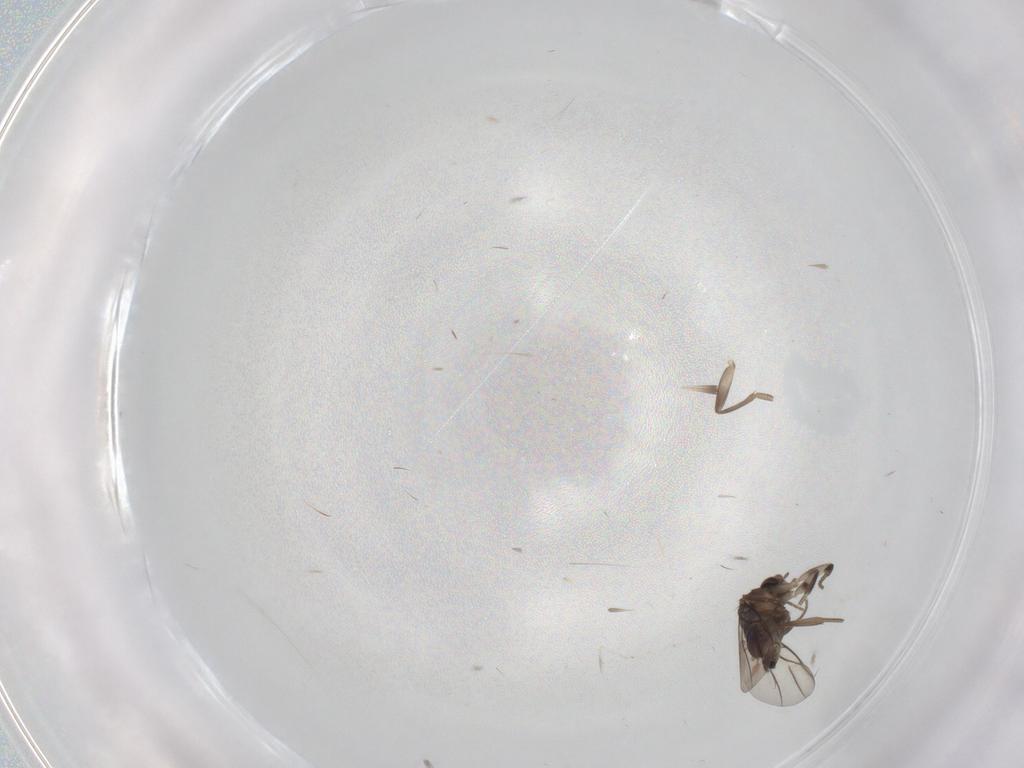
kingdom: Animalia
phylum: Arthropoda
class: Insecta
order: Diptera
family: Phoridae
